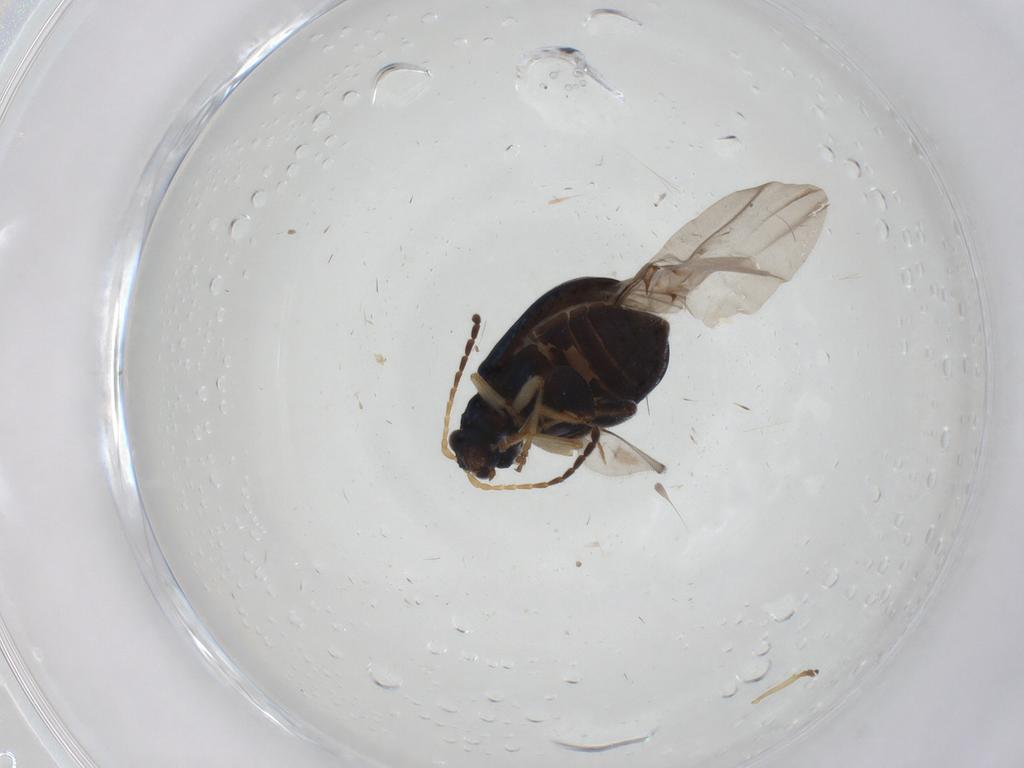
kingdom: Animalia
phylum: Arthropoda
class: Insecta
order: Coleoptera
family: Chrysomelidae
